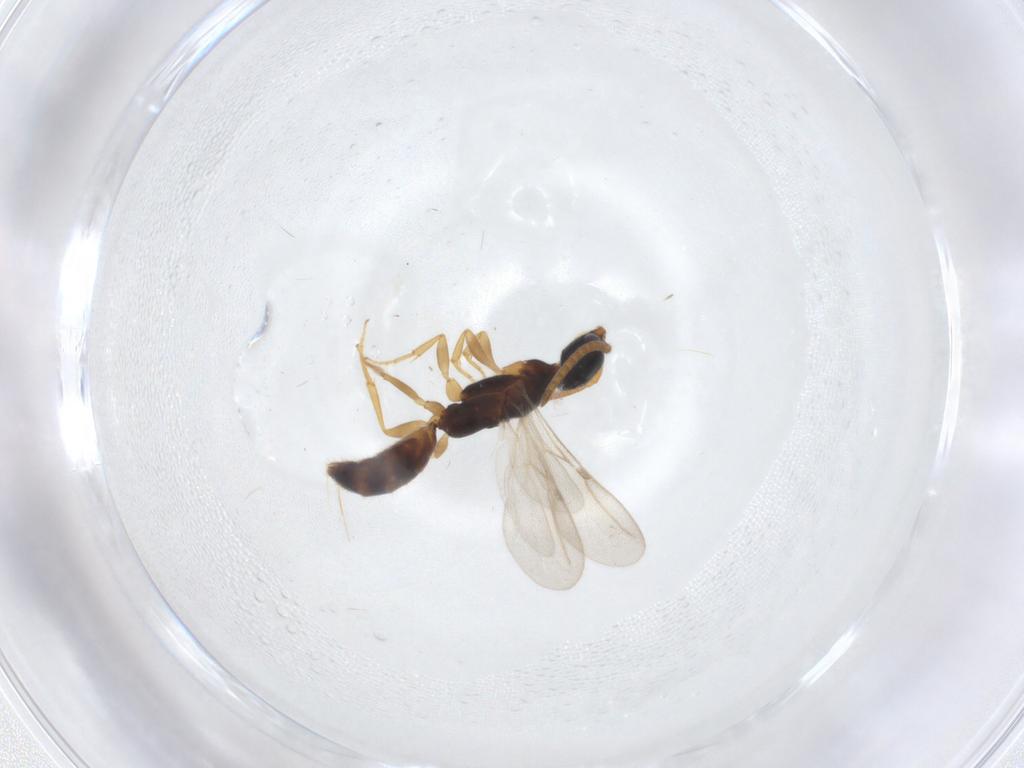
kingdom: Animalia
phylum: Arthropoda
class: Insecta
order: Hymenoptera
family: Bethylidae
